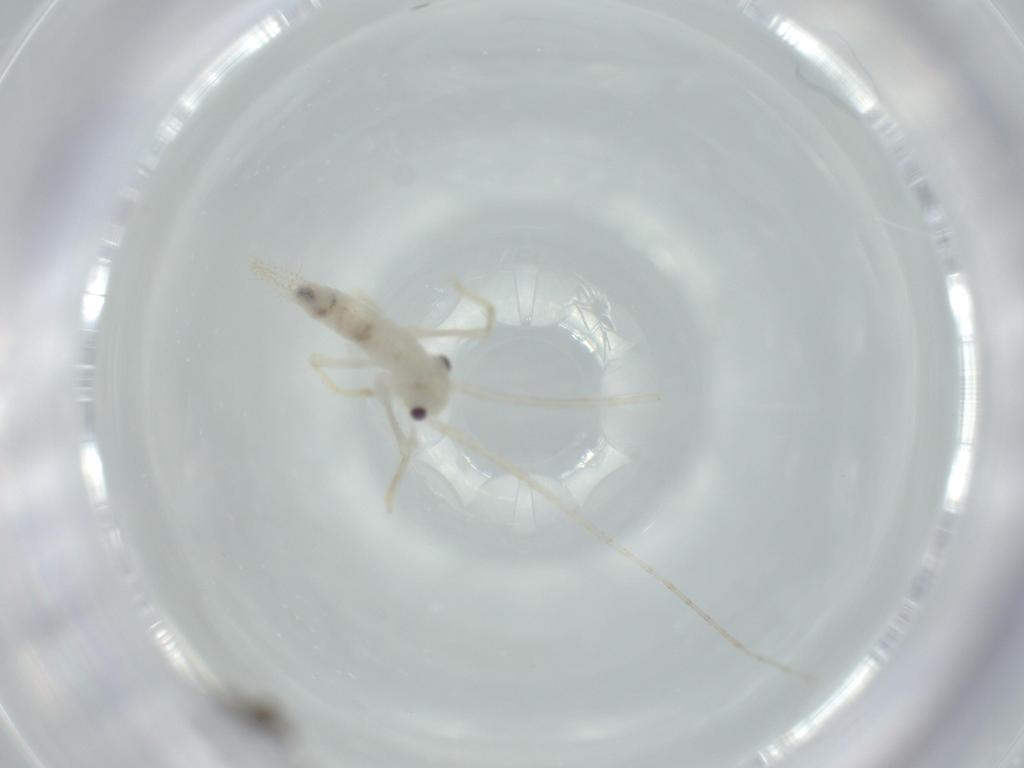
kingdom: Animalia
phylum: Arthropoda
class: Insecta
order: Orthoptera
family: Trigonidiidae
